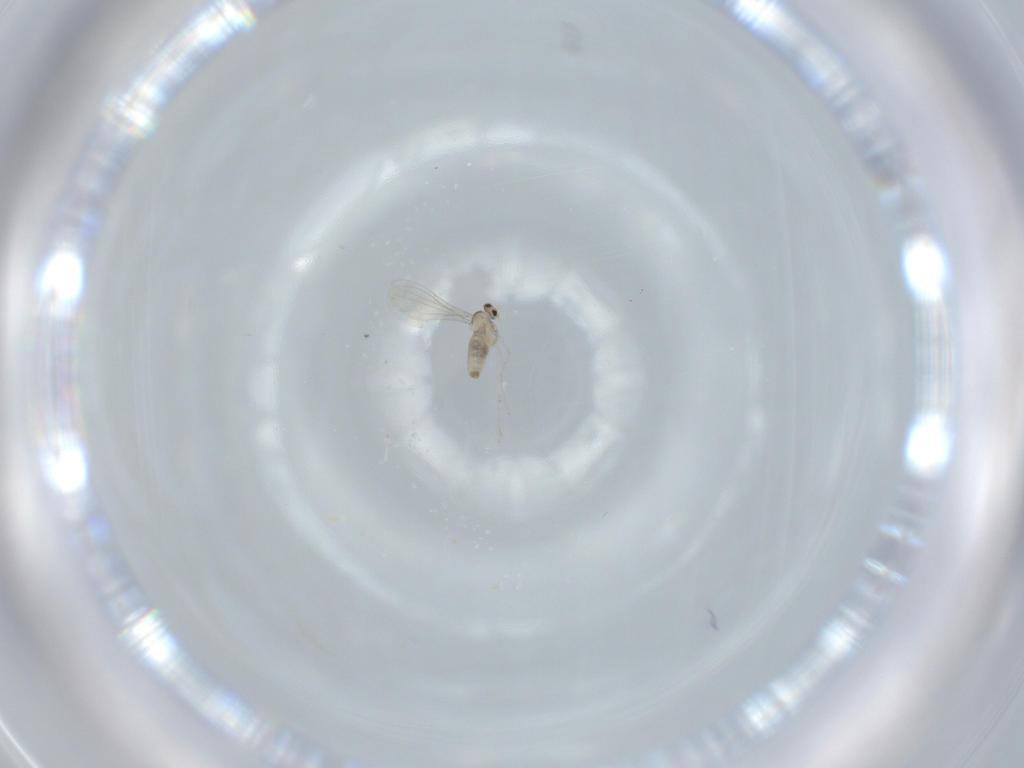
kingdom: Animalia
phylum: Arthropoda
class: Insecta
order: Diptera
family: Cecidomyiidae
